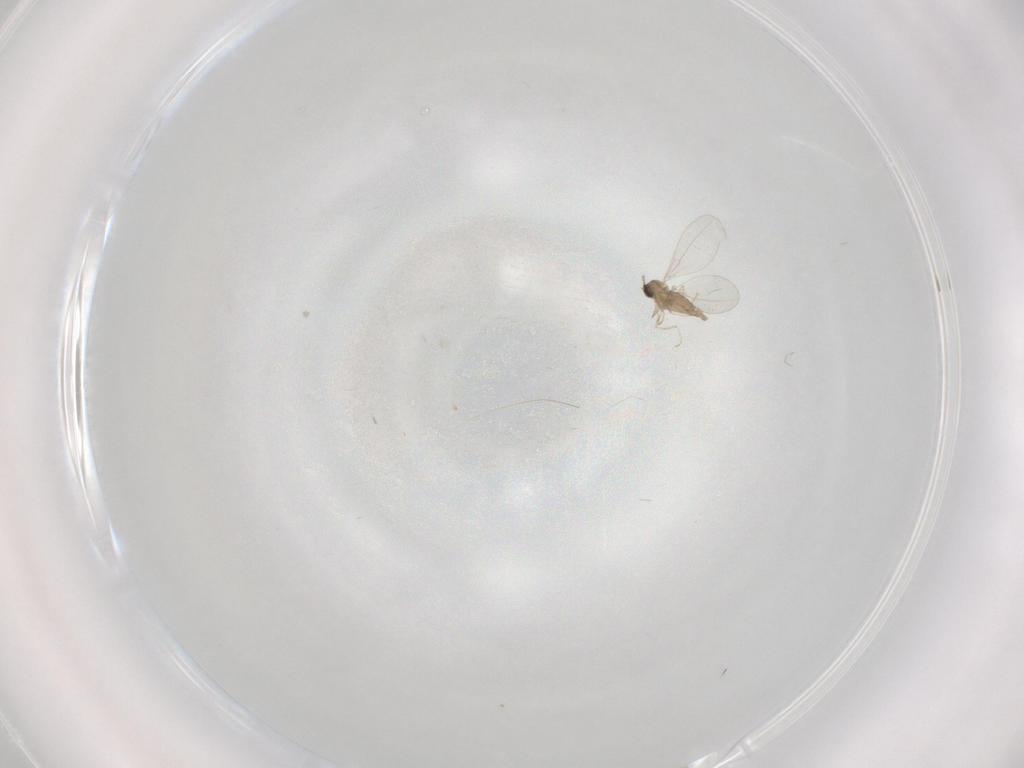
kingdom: Animalia
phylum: Arthropoda
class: Insecta
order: Diptera
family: Cecidomyiidae
